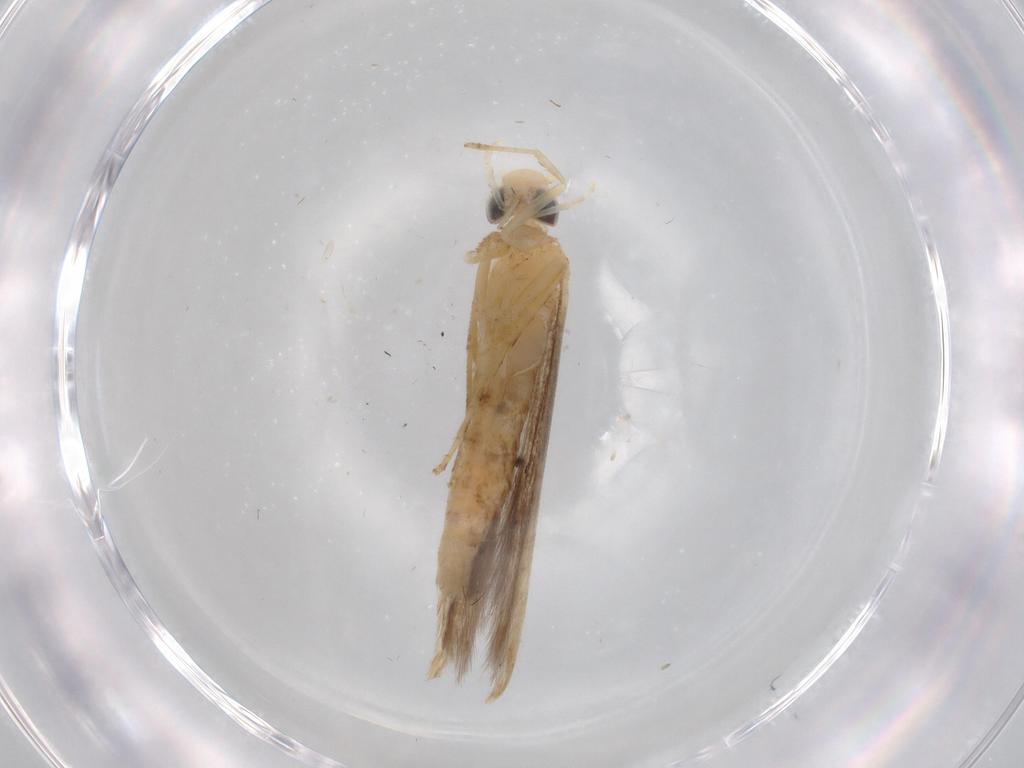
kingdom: Animalia
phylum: Arthropoda
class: Insecta
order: Lepidoptera
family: Batrachedridae
